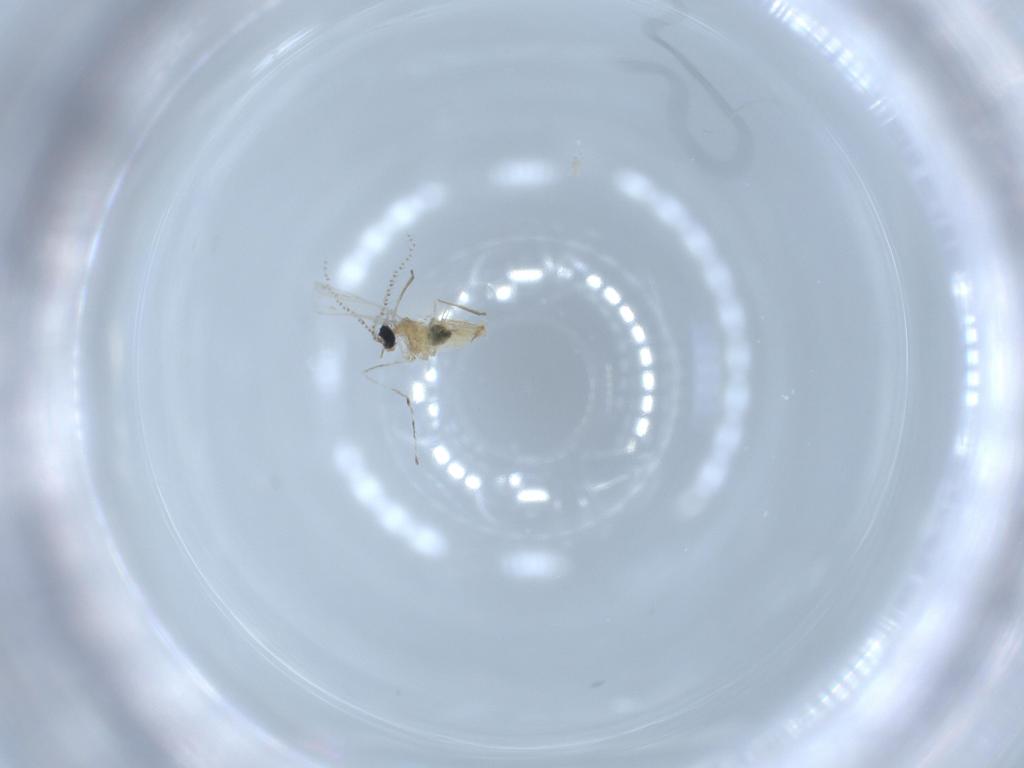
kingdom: Animalia
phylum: Arthropoda
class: Insecta
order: Diptera
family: Cecidomyiidae
